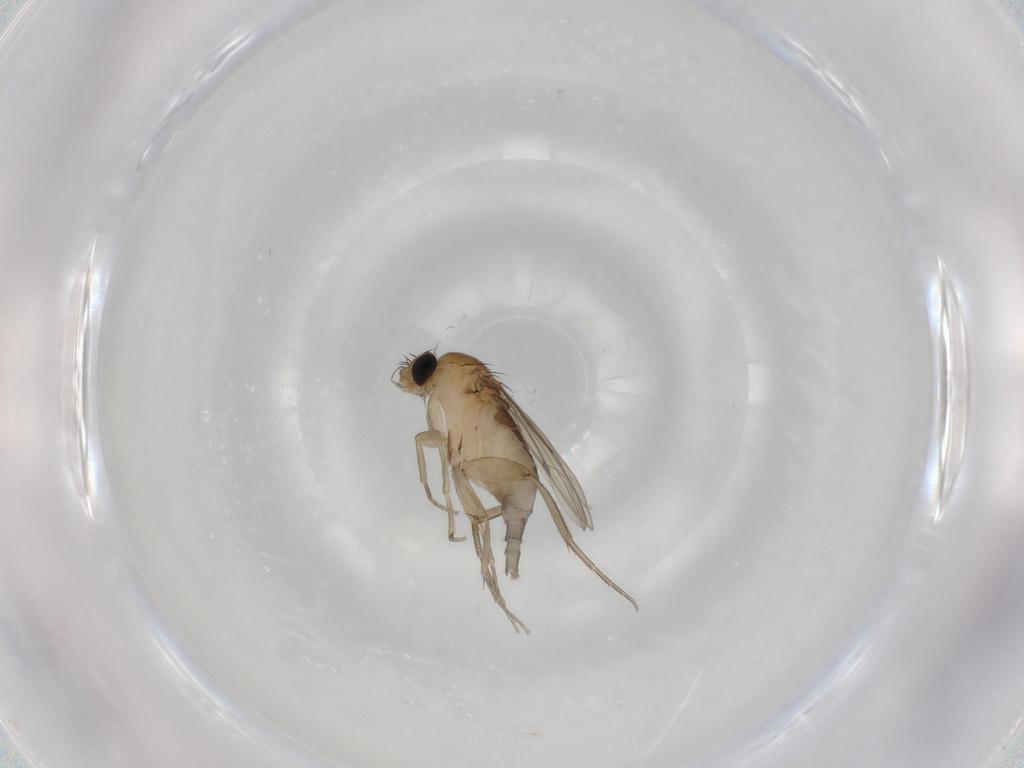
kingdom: Animalia
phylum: Arthropoda
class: Insecta
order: Diptera
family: Phoridae
